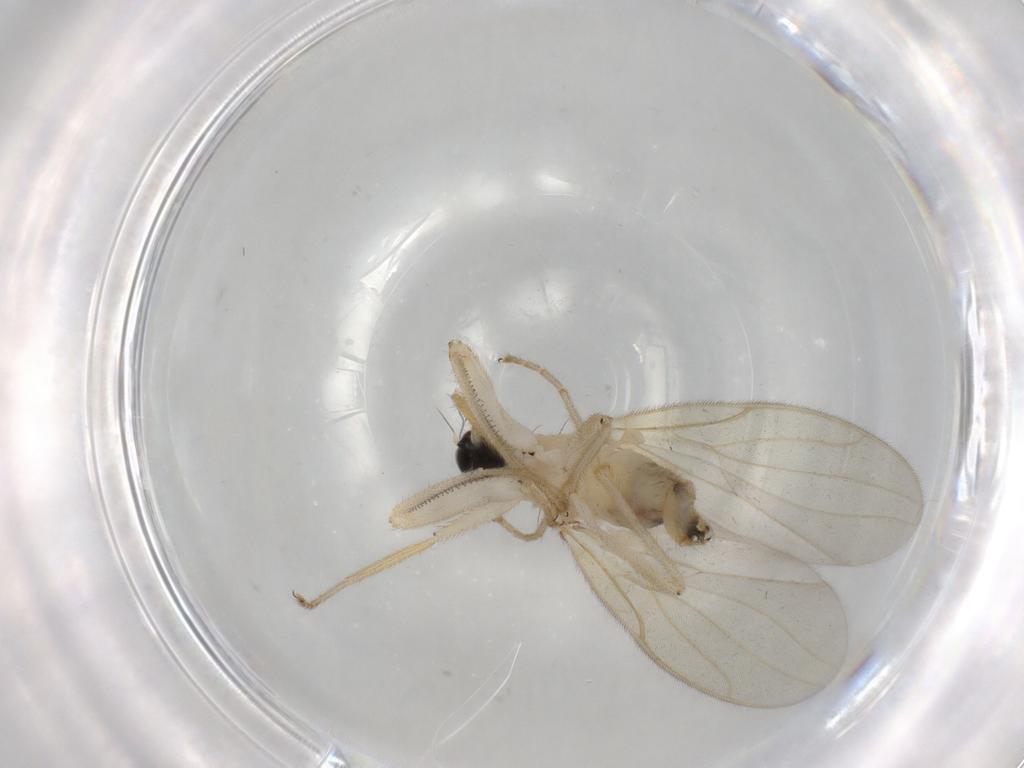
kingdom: Animalia
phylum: Arthropoda
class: Insecta
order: Diptera
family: Hybotidae
